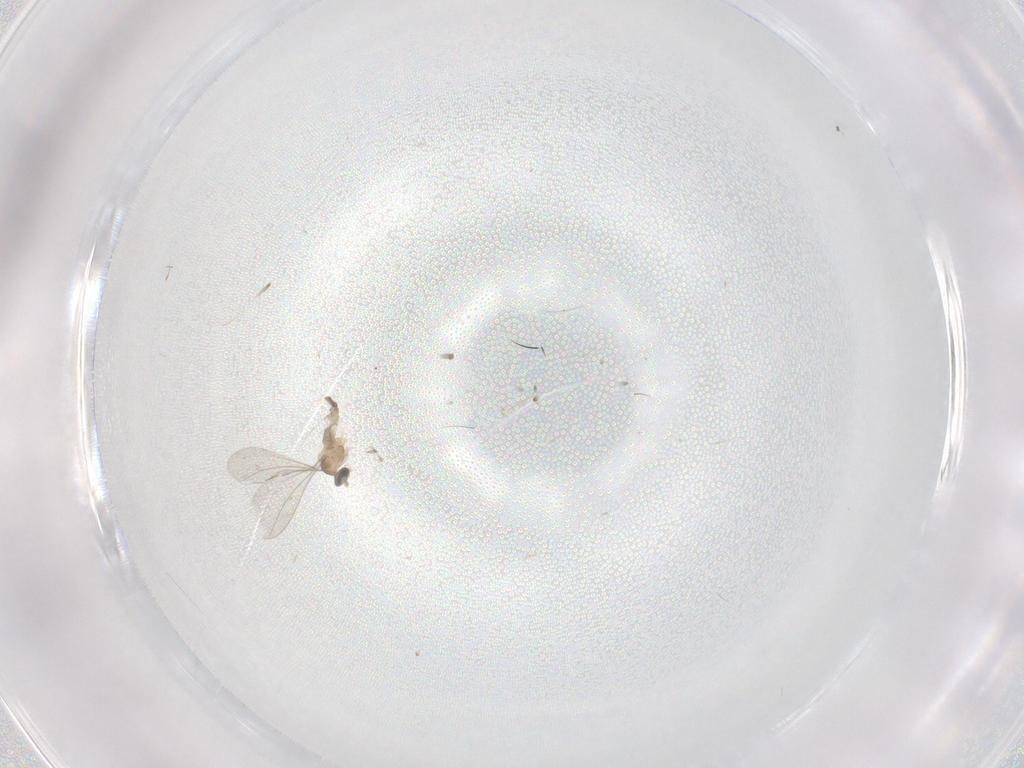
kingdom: Animalia
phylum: Arthropoda
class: Insecta
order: Diptera
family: Cecidomyiidae
